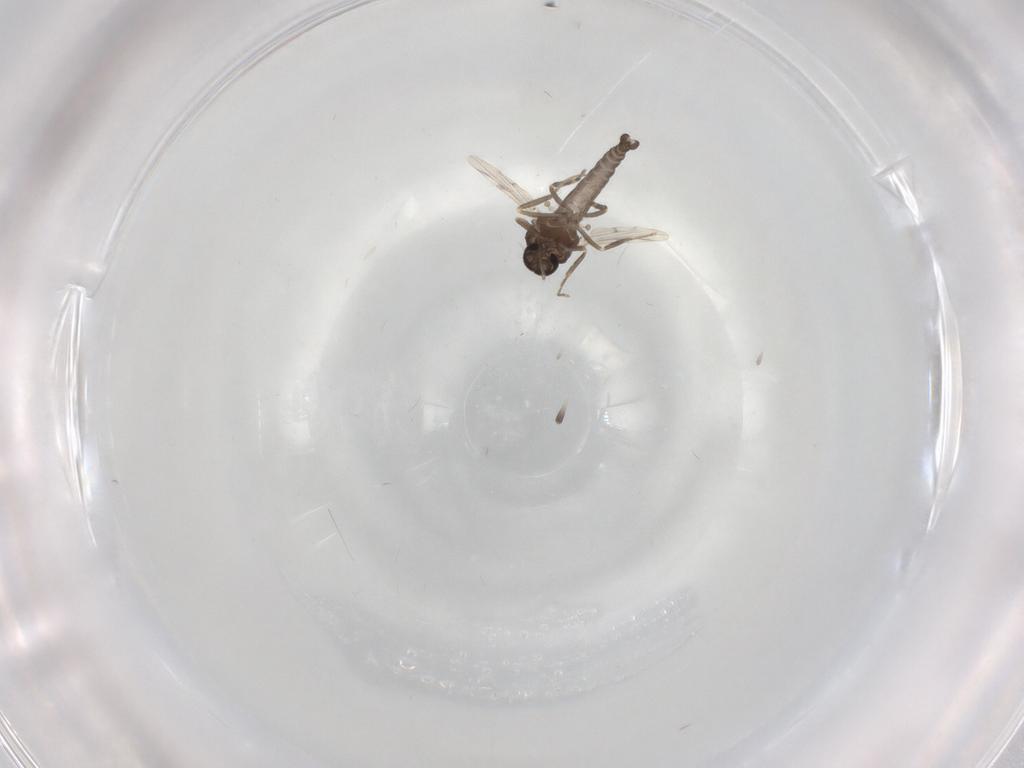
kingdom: Animalia
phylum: Arthropoda
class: Insecta
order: Diptera
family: Ceratopogonidae
